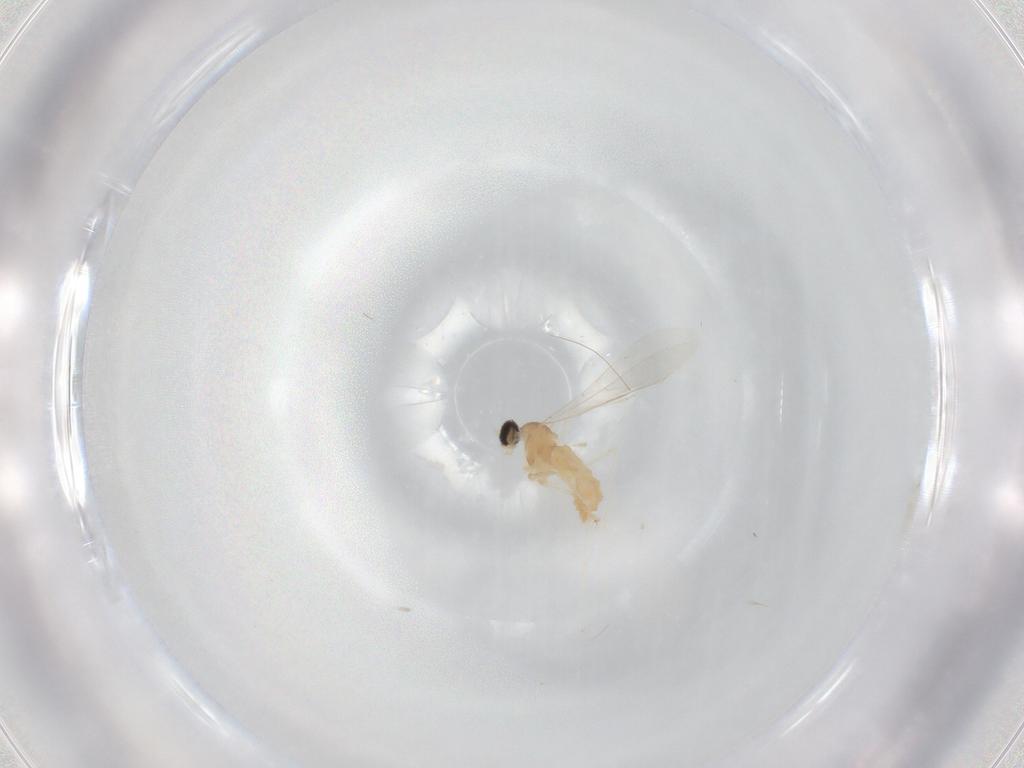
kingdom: Animalia
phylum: Arthropoda
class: Insecta
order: Diptera
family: Cecidomyiidae
